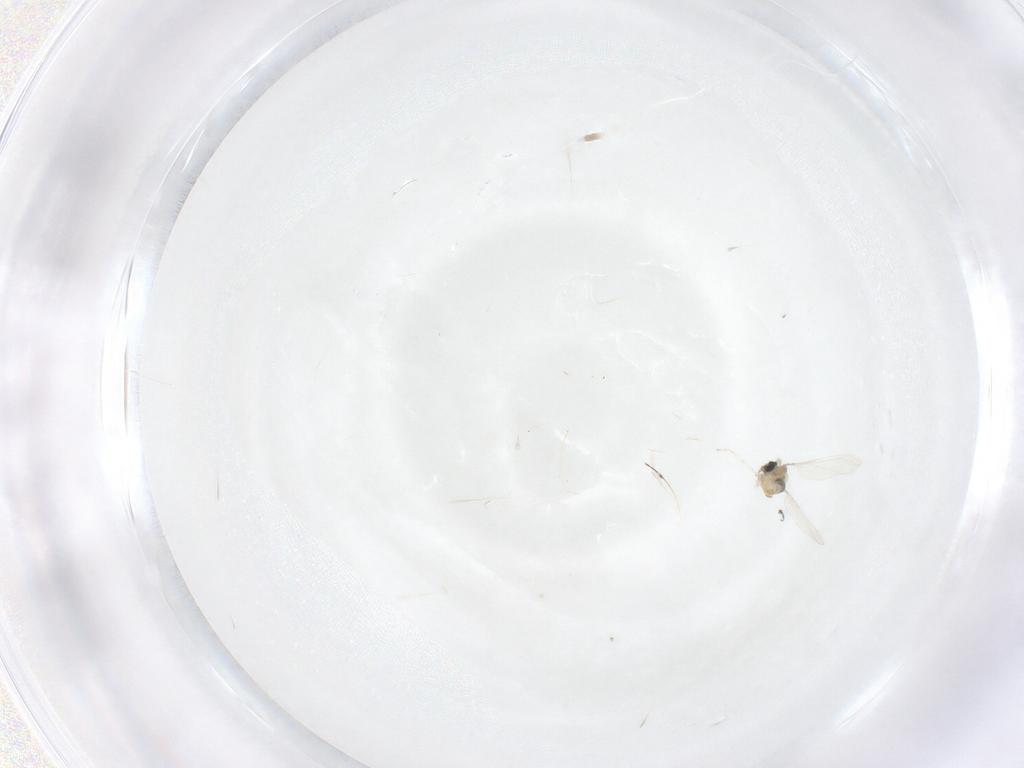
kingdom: Animalia
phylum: Arthropoda
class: Insecta
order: Diptera
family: Cecidomyiidae
